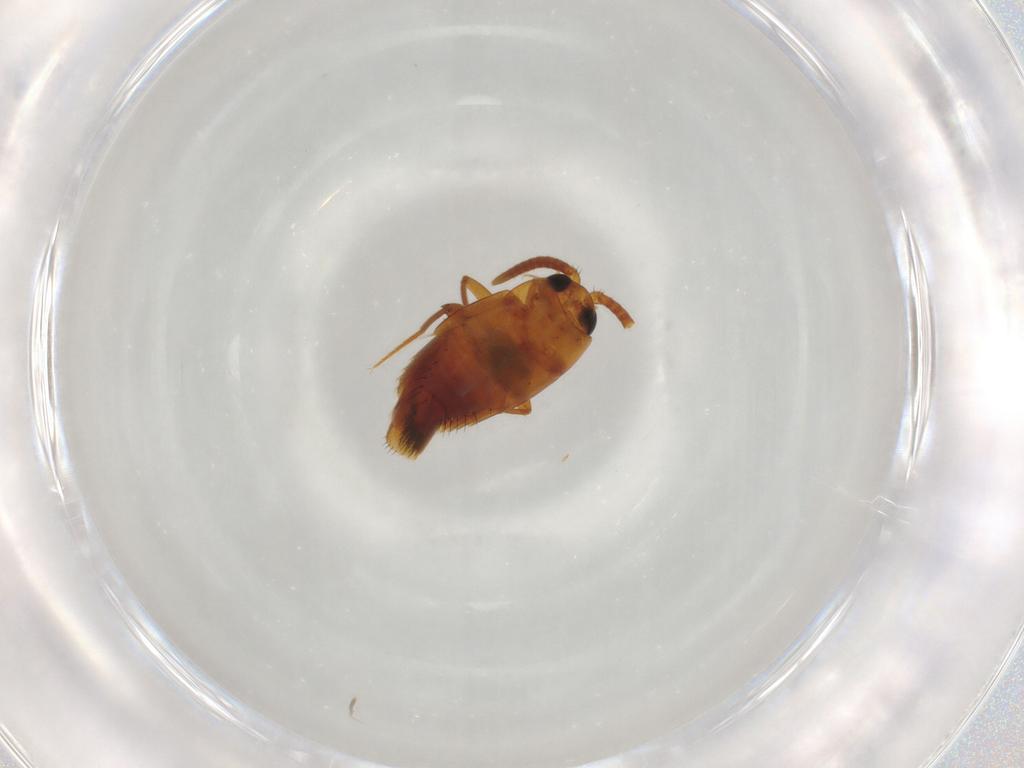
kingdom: Animalia
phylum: Arthropoda
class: Insecta
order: Coleoptera
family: Staphylinidae
